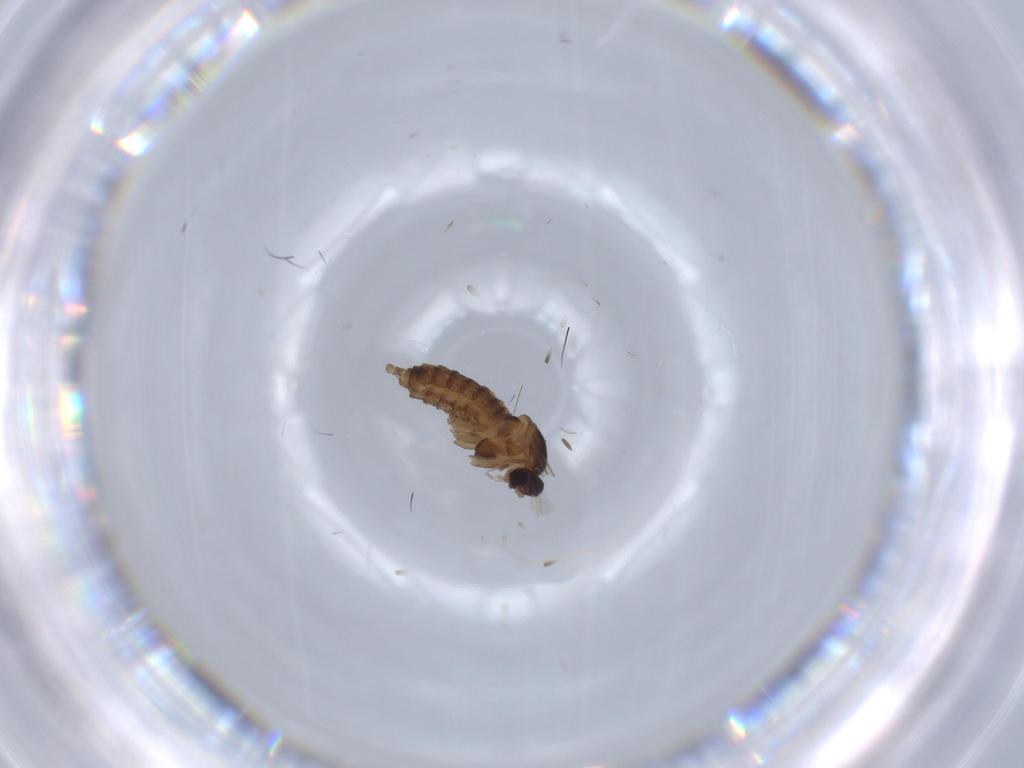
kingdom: Animalia
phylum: Arthropoda
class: Insecta
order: Diptera
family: Cecidomyiidae
